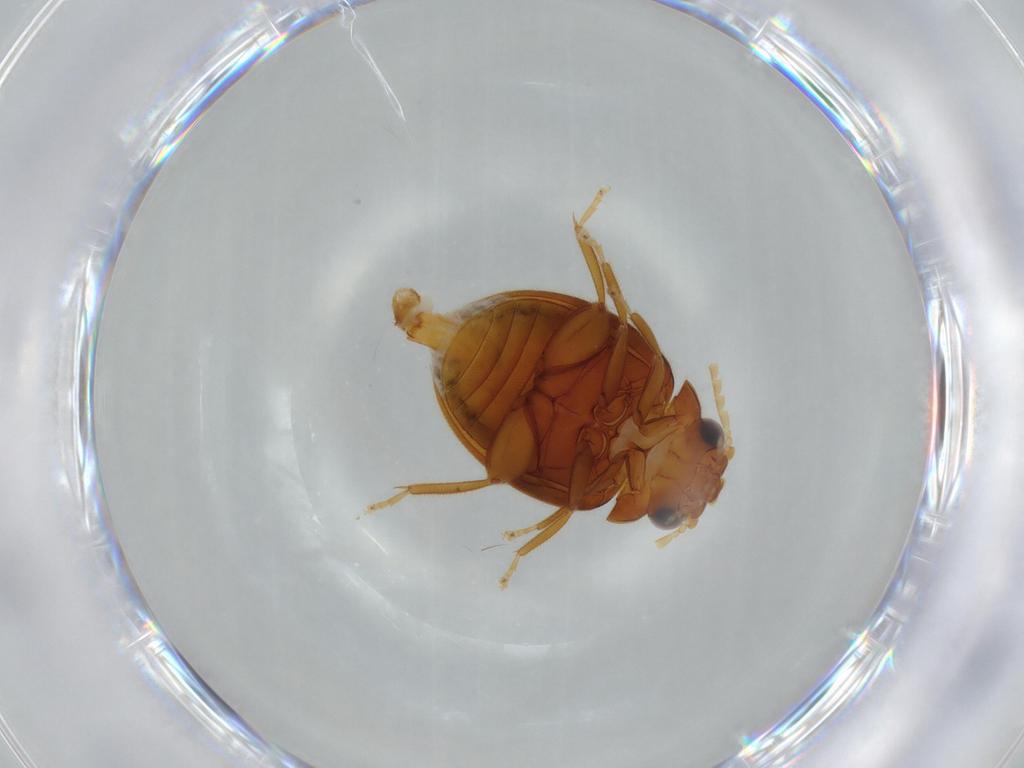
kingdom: Animalia
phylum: Arthropoda
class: Insecta
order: Coleoptera
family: Scirtidae
